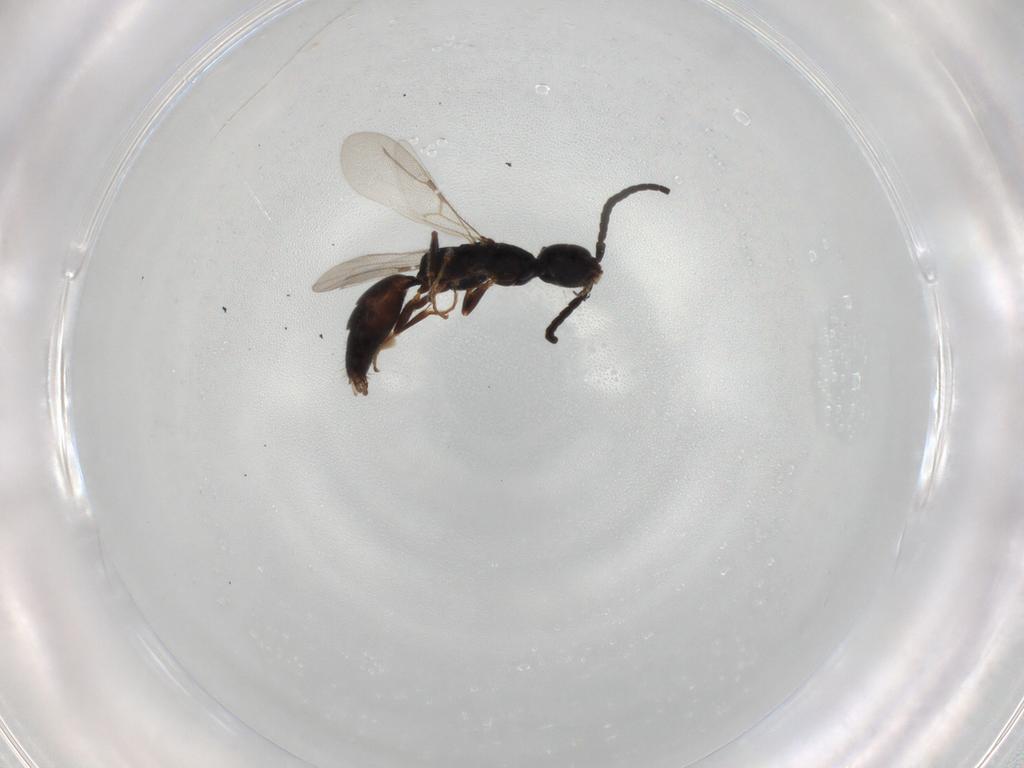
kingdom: Animalia
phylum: Arthropoda
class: Insecta
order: Hymenoptera
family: Bethylidae
